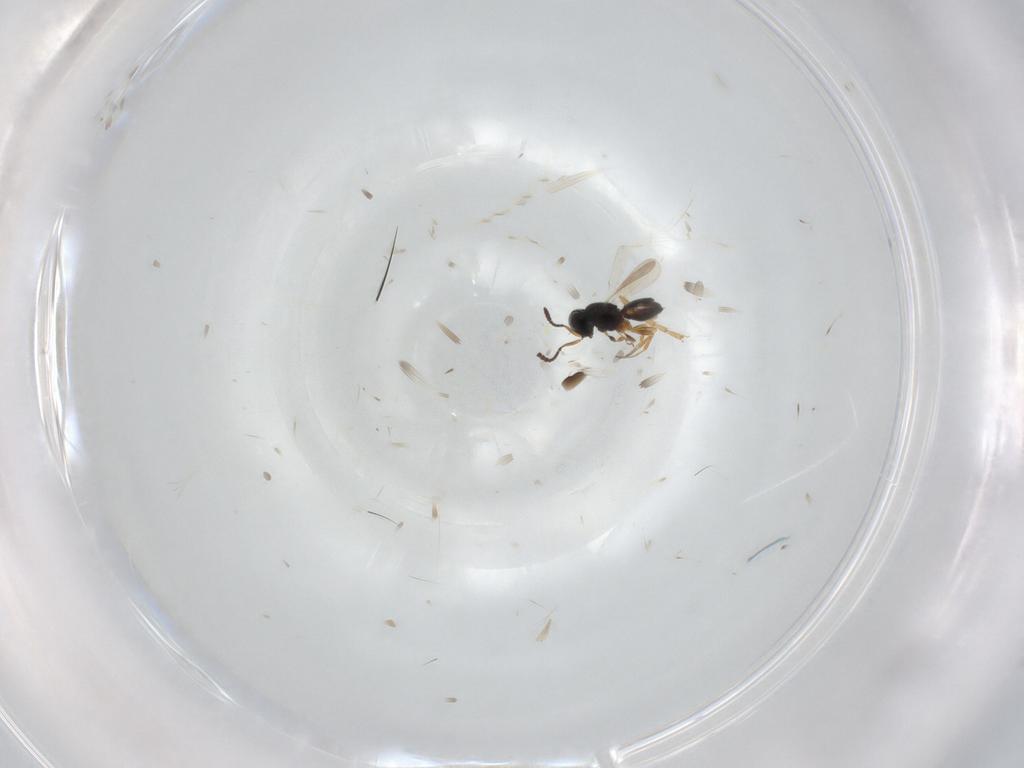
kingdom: Animalia
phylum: Arthropoda
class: Insecta
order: Hymenoptera
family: Scelionidae
